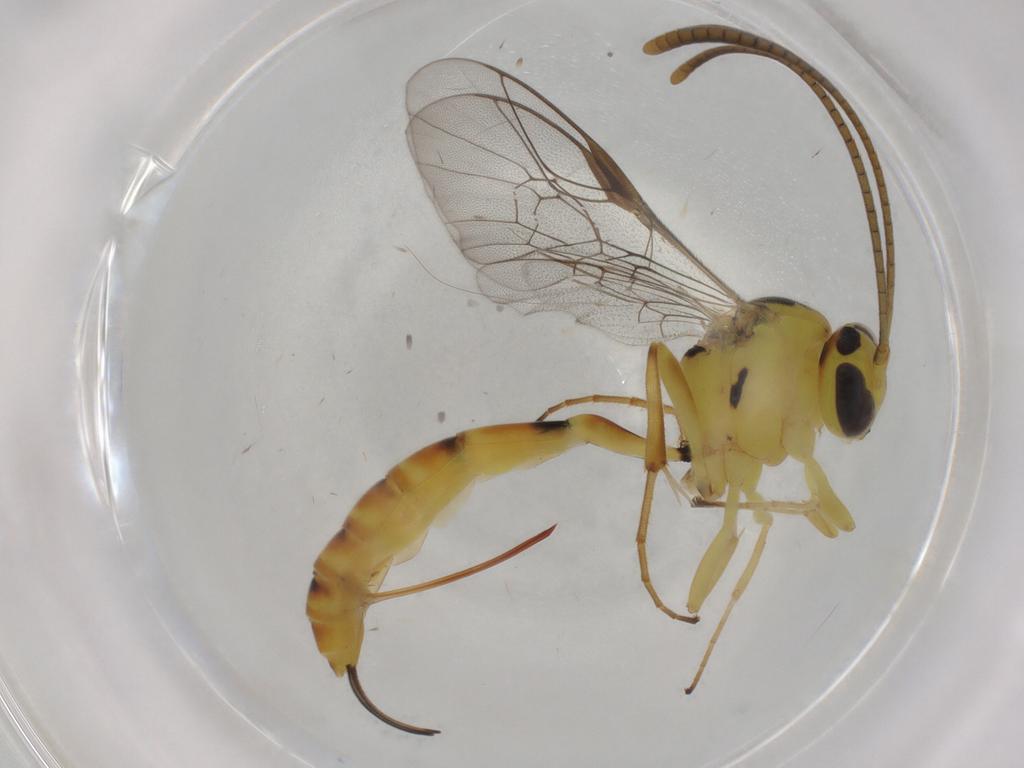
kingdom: Animalia
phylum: Arthropoda
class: Insecta
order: Hymenoptera
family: Ichneumonidae
